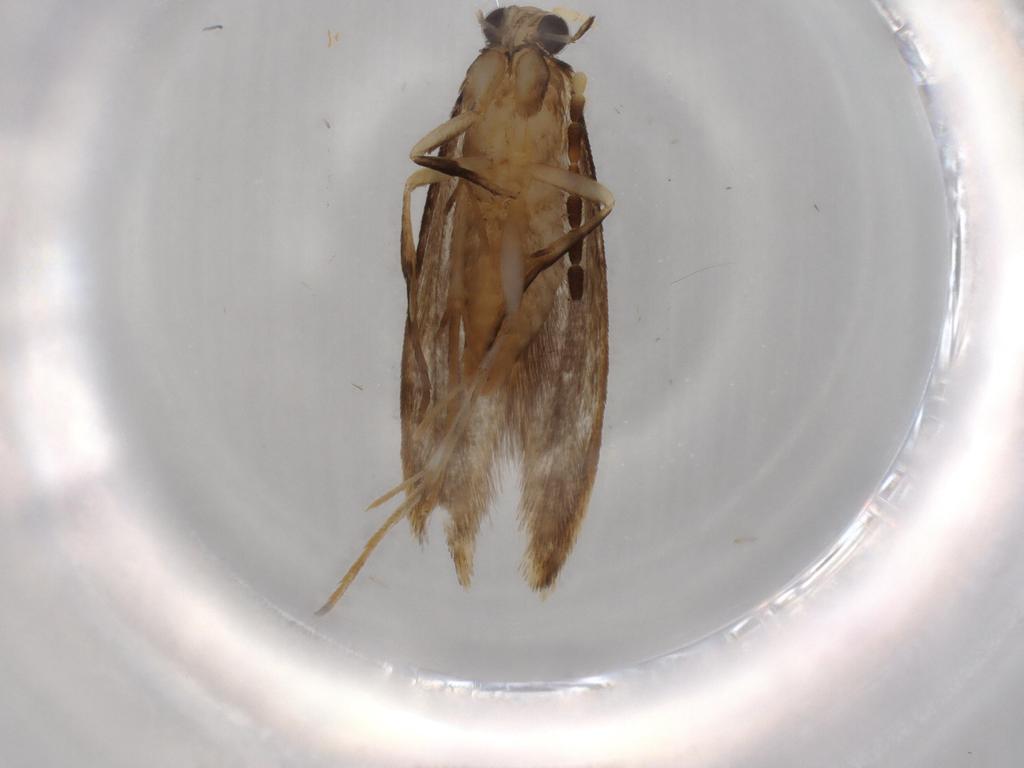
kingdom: Animalia
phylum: Arthropoda
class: Insecta
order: Lepidoptera
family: Tineidae
